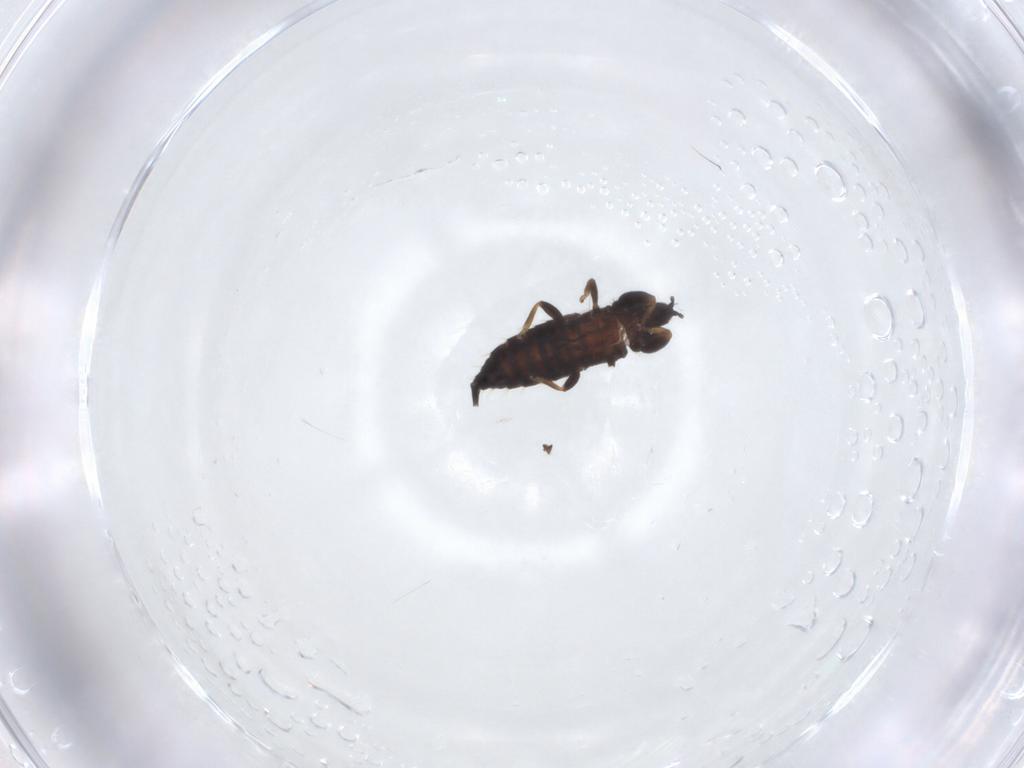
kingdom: Animalia
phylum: Arthropoda
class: Insecta
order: Thysanoptera
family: Phlaeothripidae
